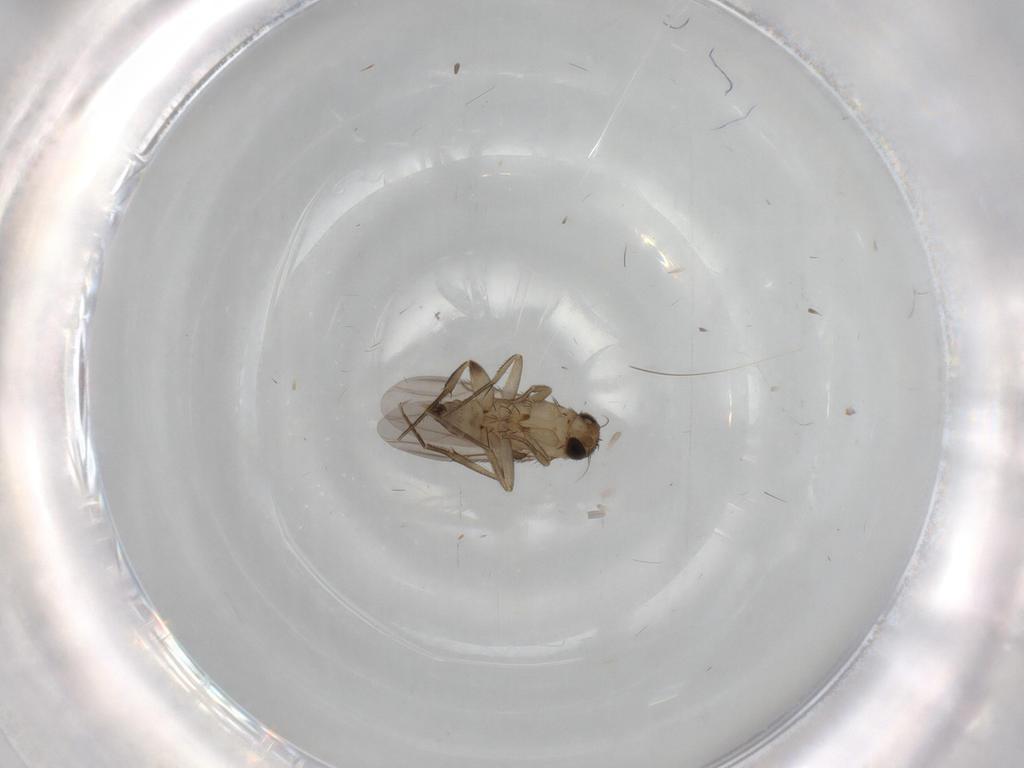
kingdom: Animalia
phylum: Arthropoda
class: Insecta
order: Diptera
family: Phoridae
